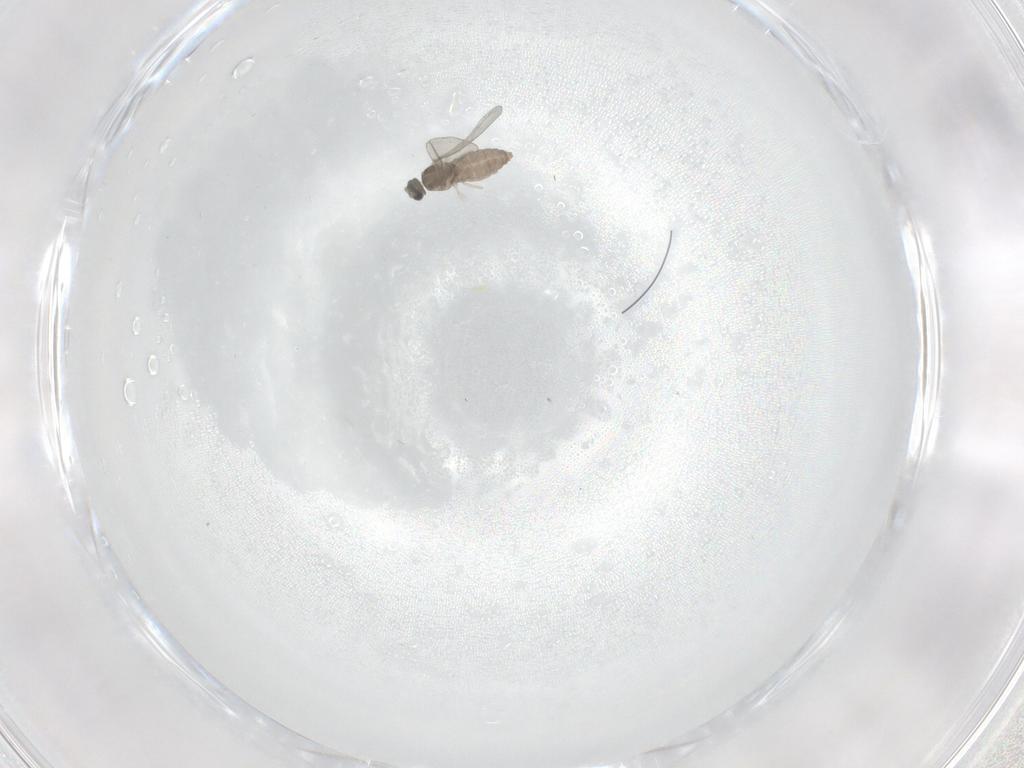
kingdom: Animalia
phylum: Arthropoda
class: Insecta
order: Diptera
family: Cecidomyiidae
